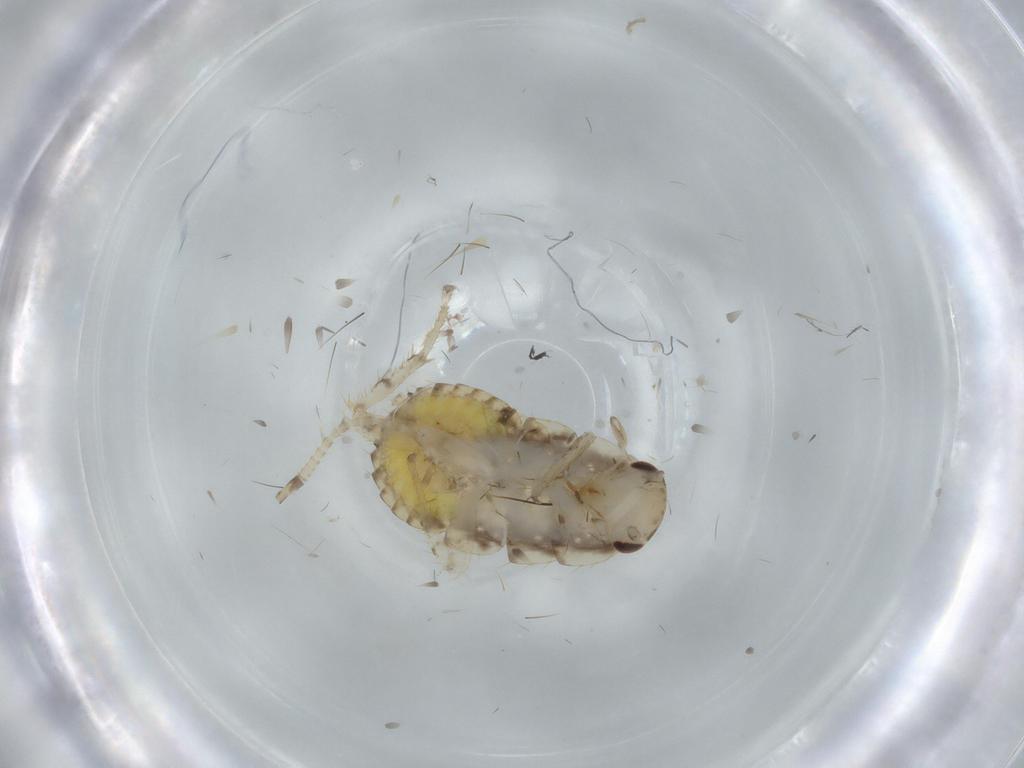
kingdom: Animalia
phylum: Arthropoda
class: Insecta
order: Blattodea
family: Ectobiidae
